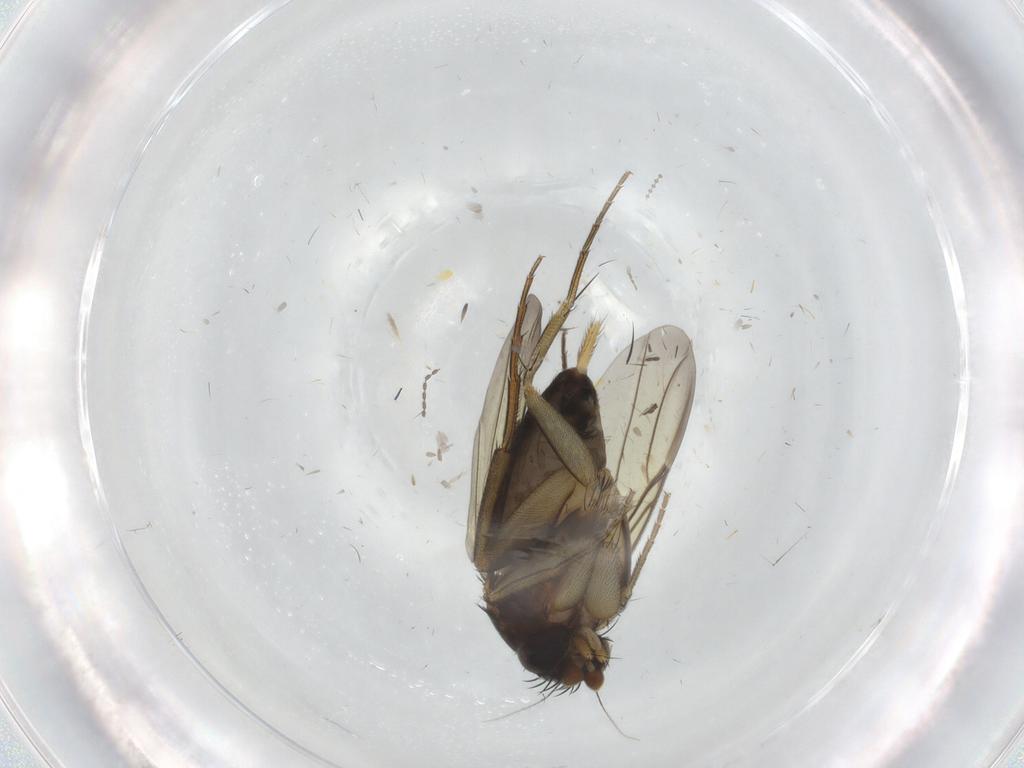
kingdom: Animalia
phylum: Arthropoda
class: Insecta
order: Diptera
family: Phoridae
